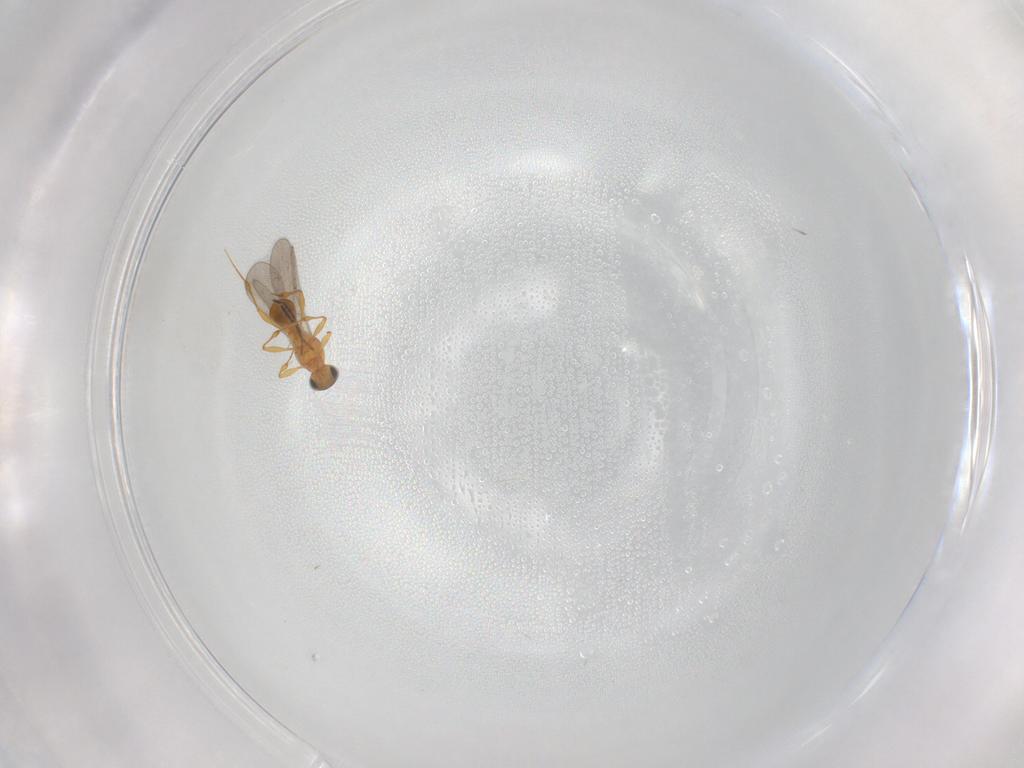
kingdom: Animalia
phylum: Arthropoda
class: Insecta
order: Hymenoptera
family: Platygastridae
